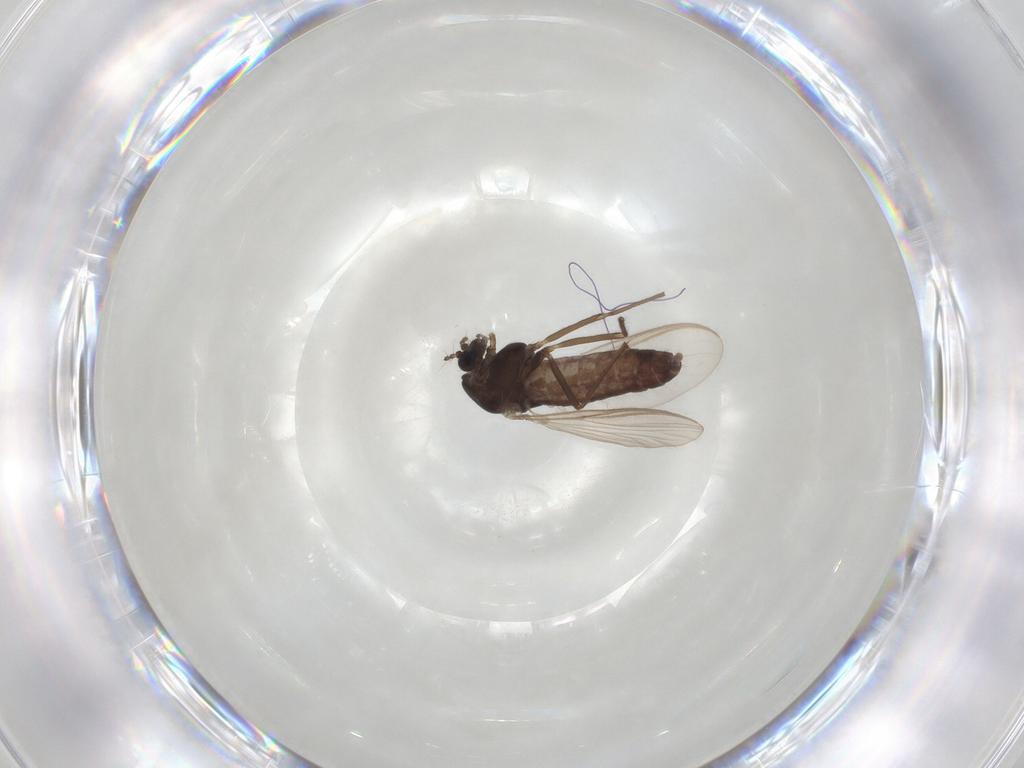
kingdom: Animalia
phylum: Arthropoda
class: Insecta
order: Diptera
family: Chironomidae
